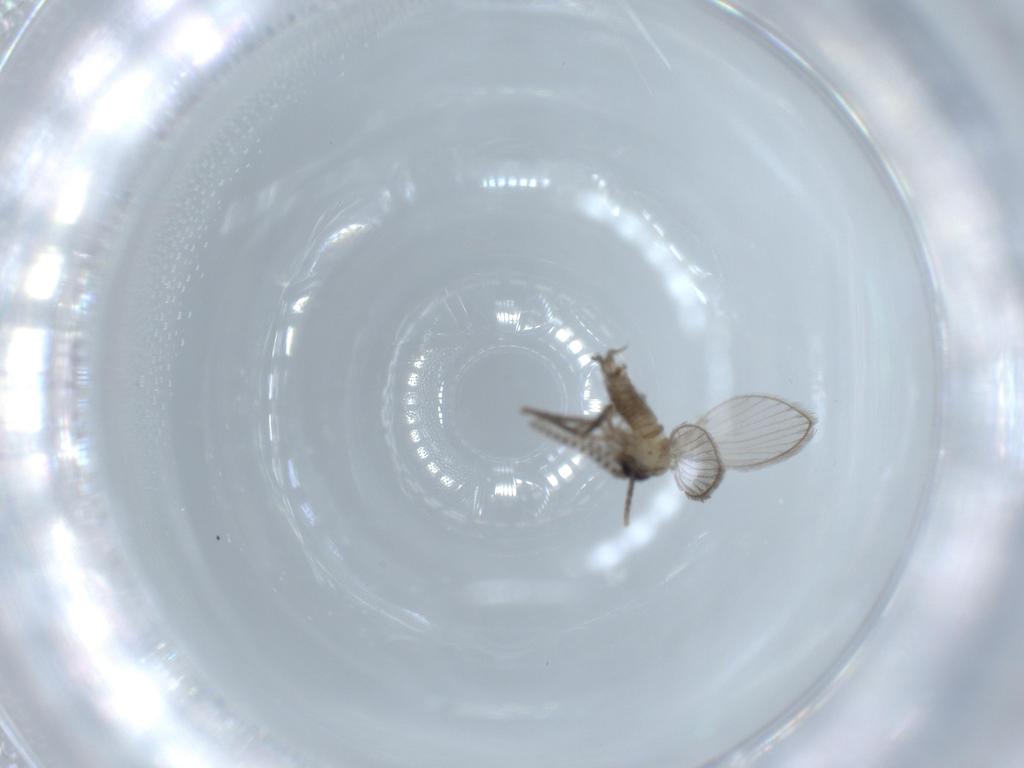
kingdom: Animalia
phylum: Arthropoda
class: Insecta
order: Diptera
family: Psychodidae
